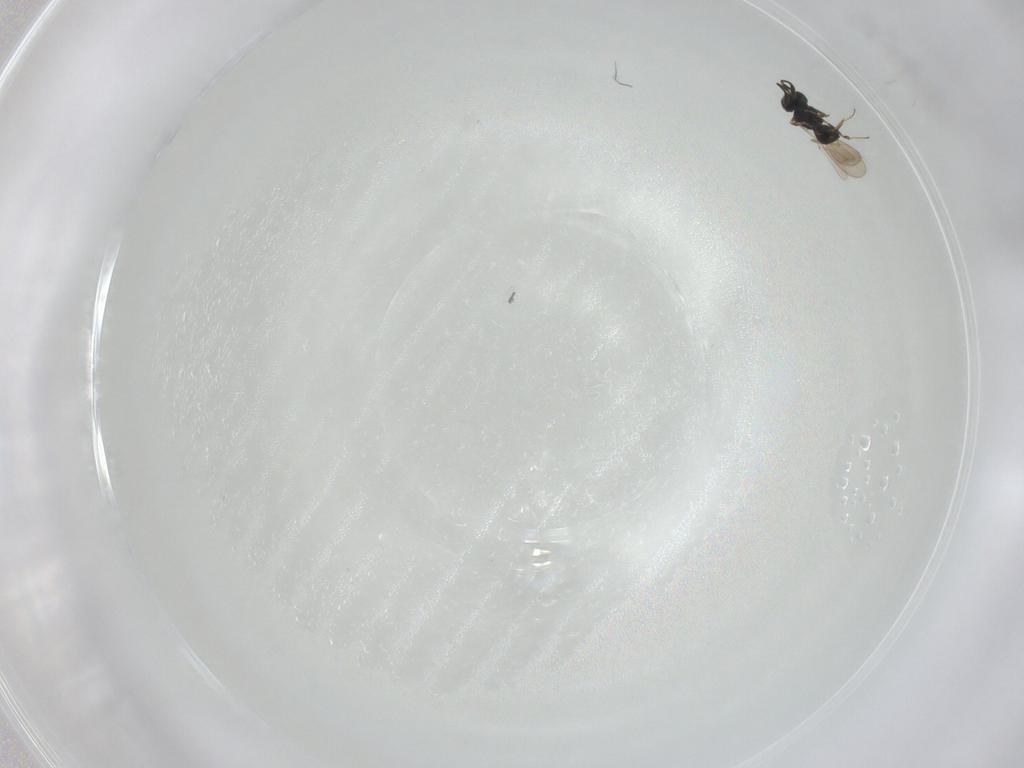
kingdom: Animalia
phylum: Arthropoda
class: Insecta
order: Hymenoptera
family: Scelionidae
